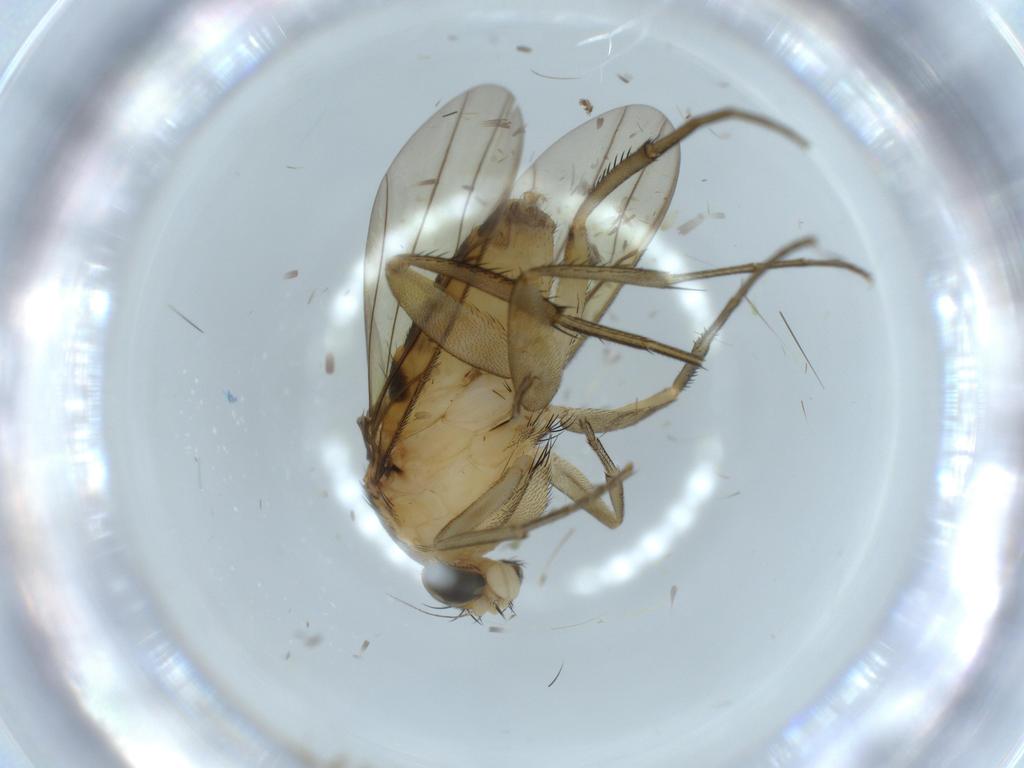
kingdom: Animalia
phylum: Arthropoda
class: Insecta
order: Diptera
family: Phoridae
